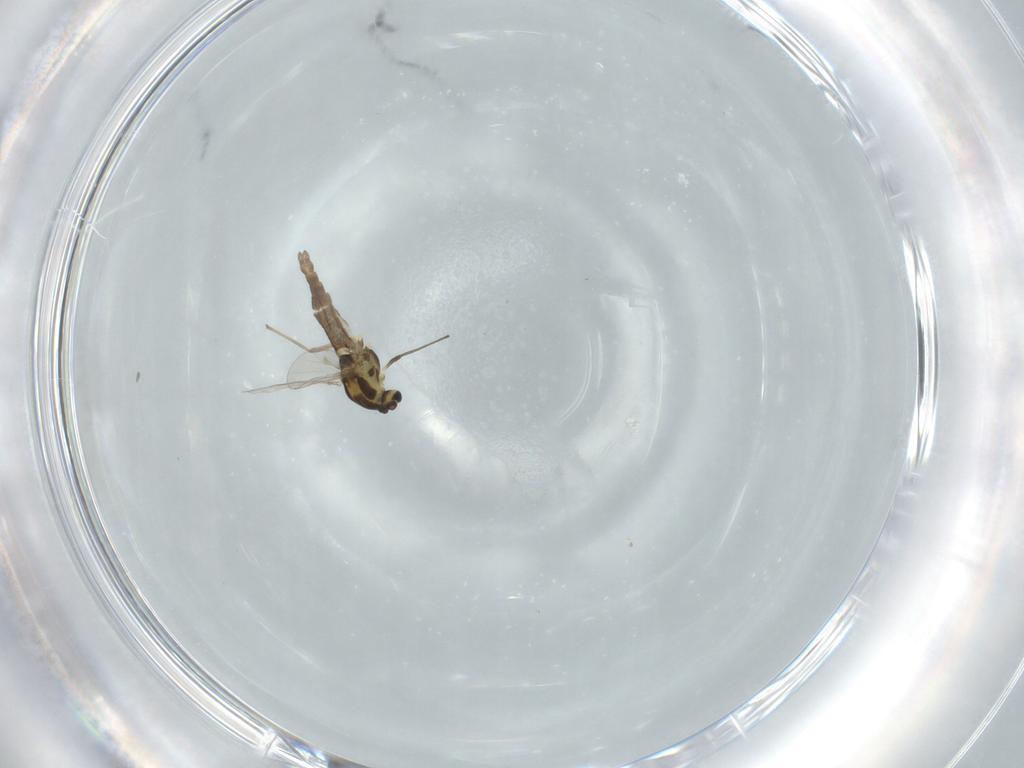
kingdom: Animalia
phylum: Arthropoda
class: Insecta
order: Diptera
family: Chironomidae
